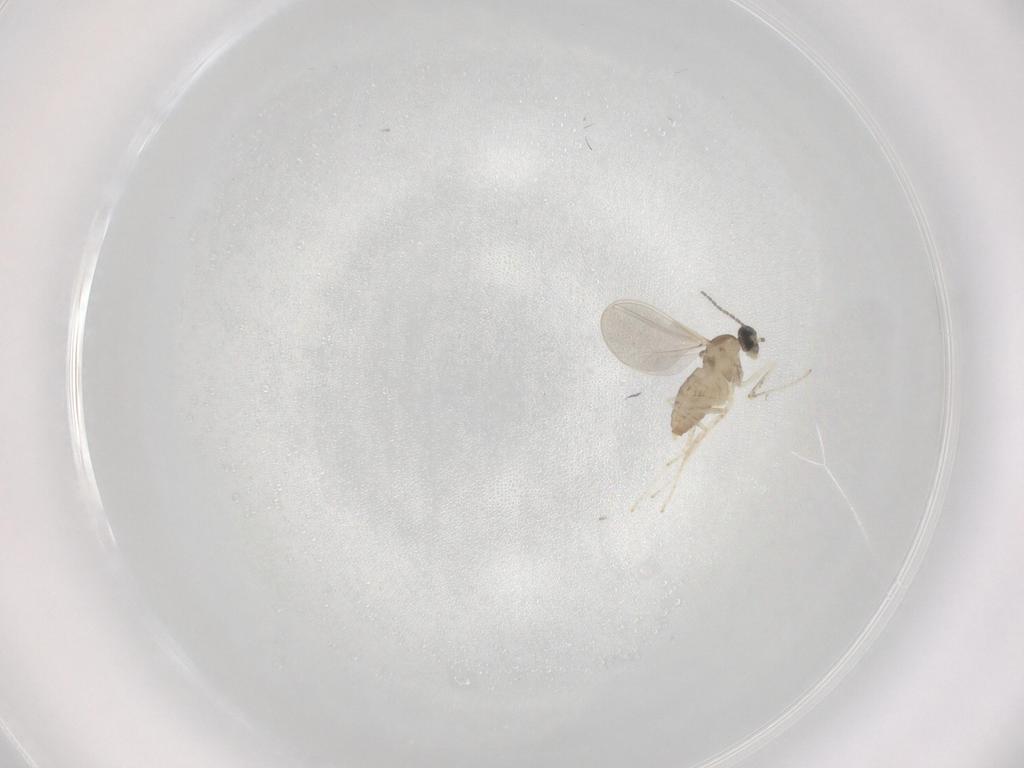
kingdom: Animalia
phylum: Arthropoda
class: Insecta
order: Diptera
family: Cecidomyiidae
